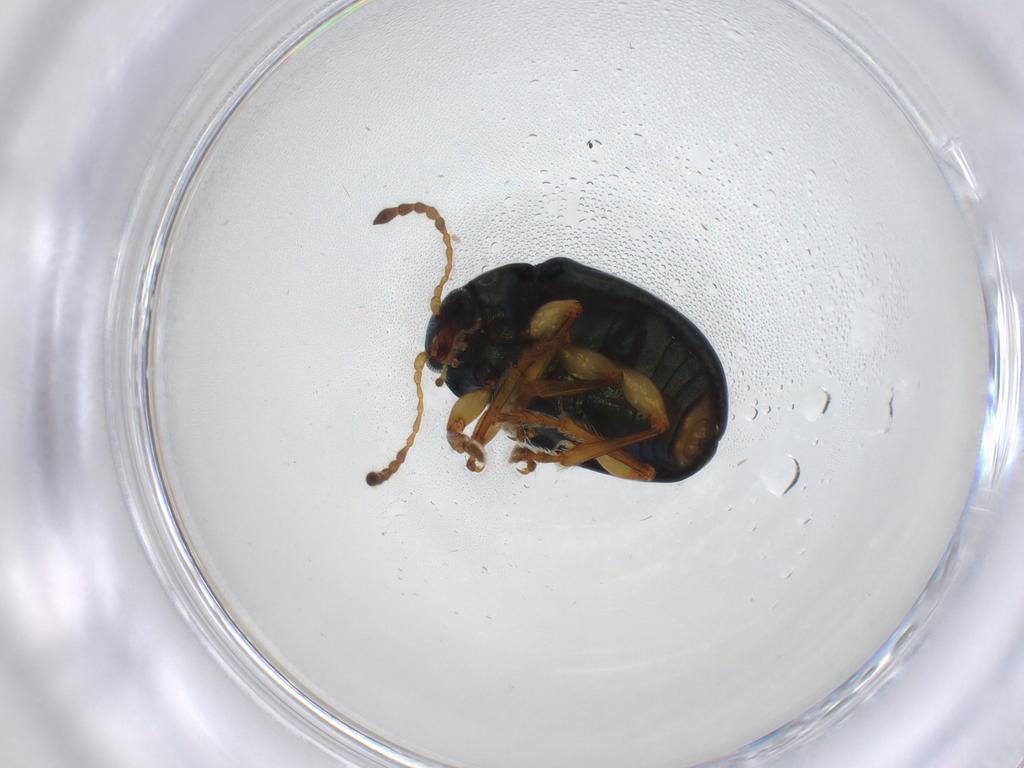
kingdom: Animalia
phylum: Arthropoda
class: Insecta
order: Coleoptera
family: Chrysomelidae
